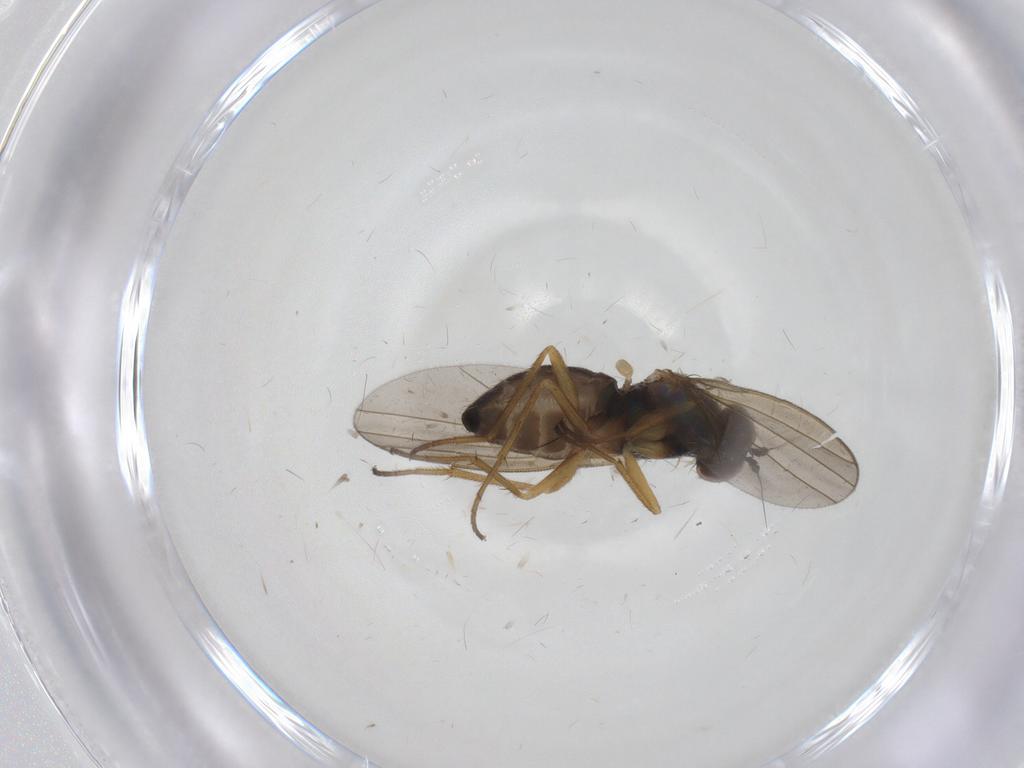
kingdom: Animalia
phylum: Arthropoda
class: Insecta
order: Diptera
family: Dolichopodidae
